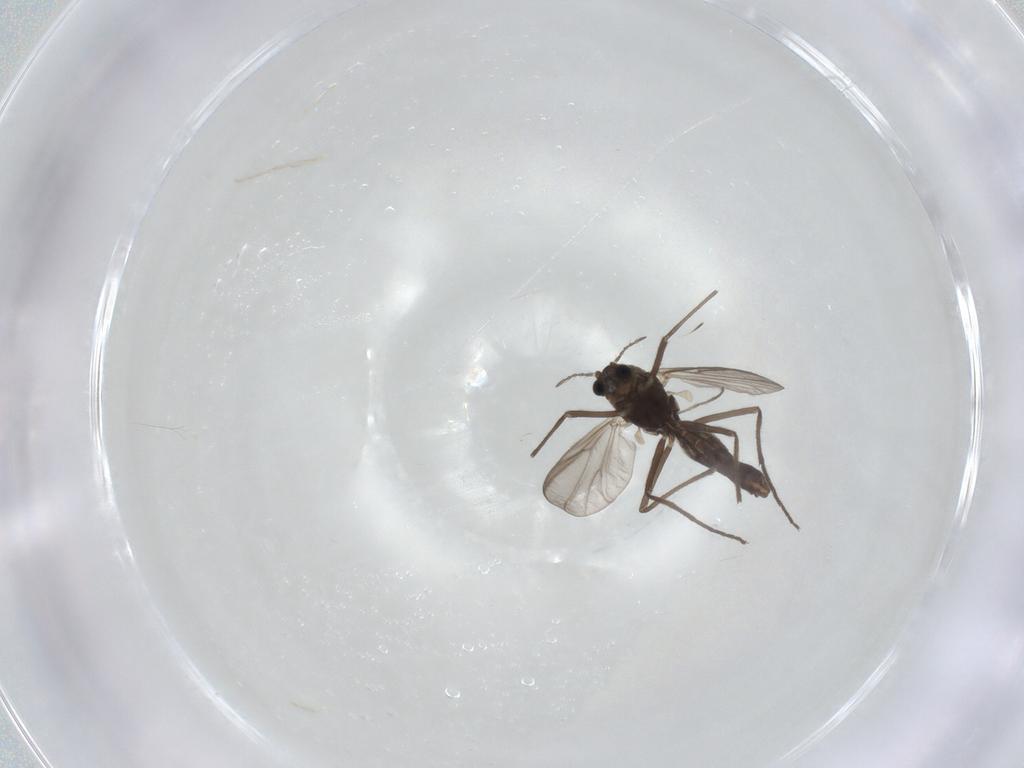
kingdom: Animalia
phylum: Arthropoda
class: Insecta
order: Diptera
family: Chironomidae
